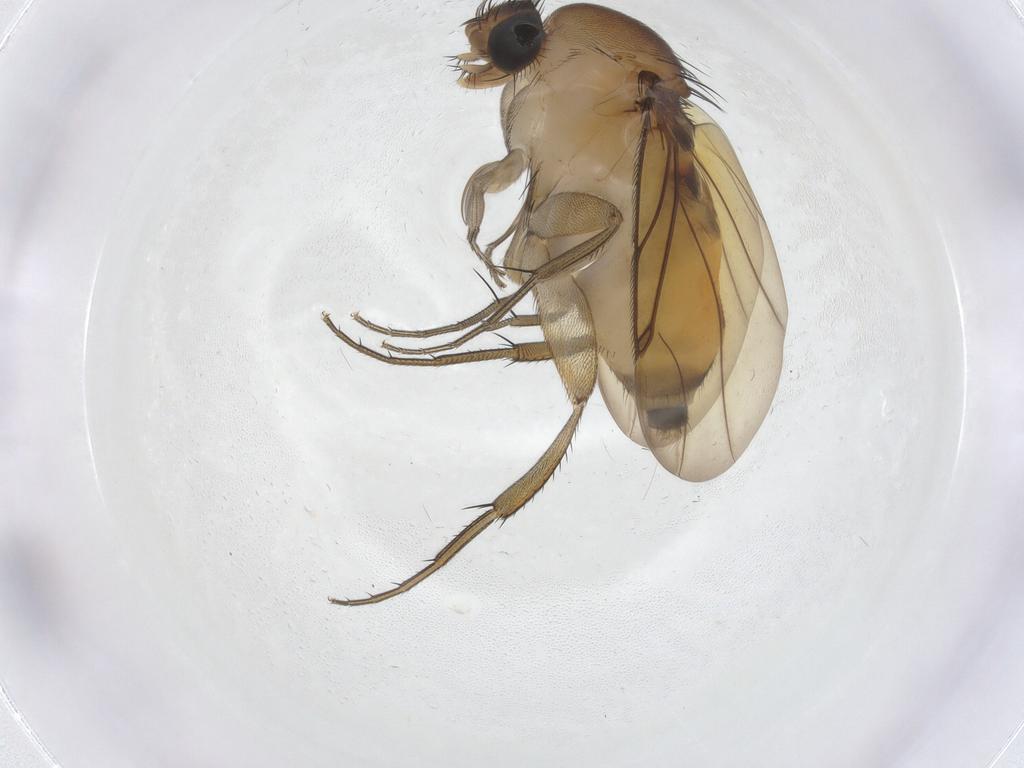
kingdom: Animalia
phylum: Arthropoda
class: Insecta
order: Diptera
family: Phoridae
